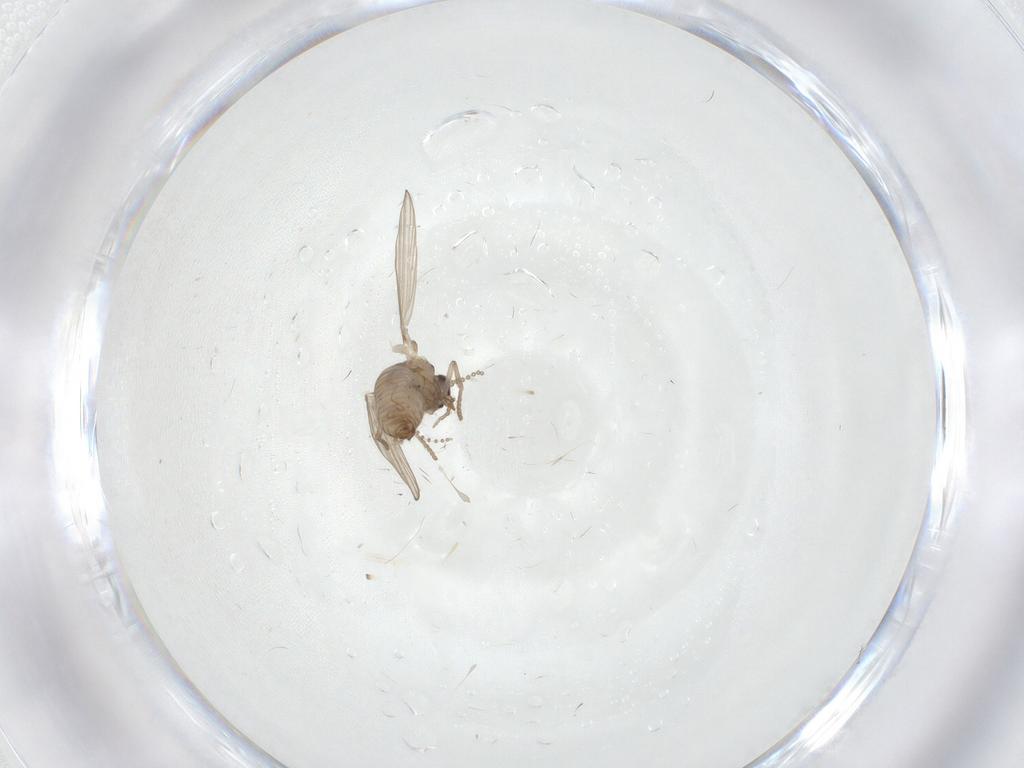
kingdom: Animalia
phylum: Arthropoda
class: Insecta
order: Diptera
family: Psychodidae
